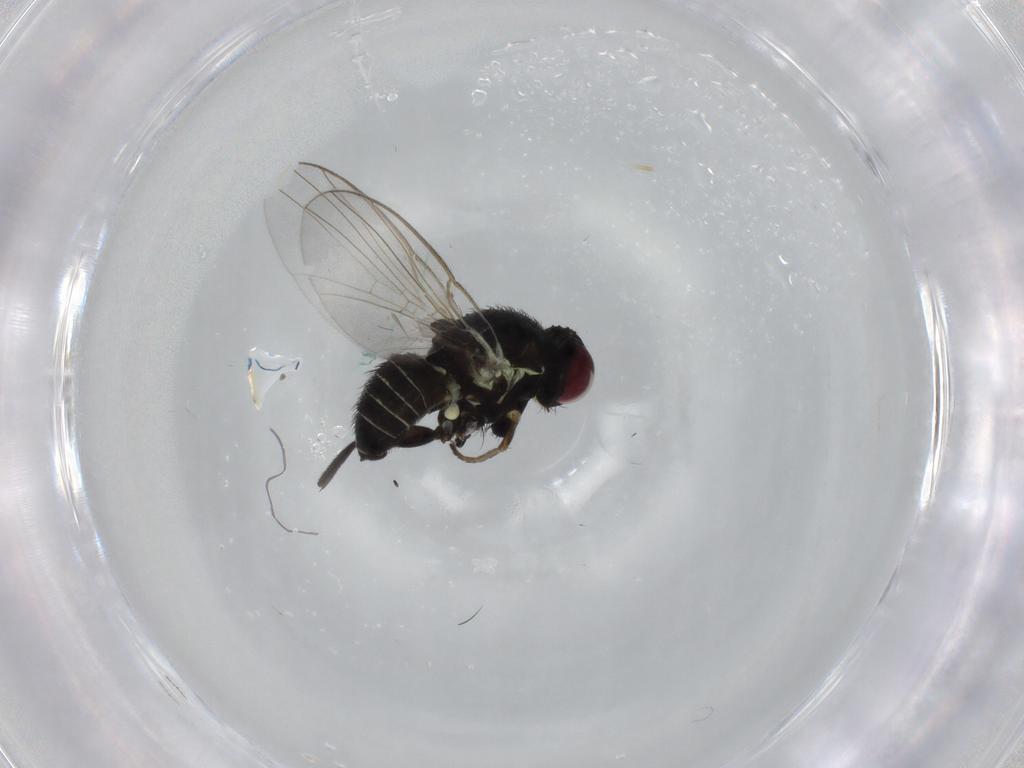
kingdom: Animalia
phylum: Arthropoda
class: Insecta
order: Diptera
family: Agromyzidae
